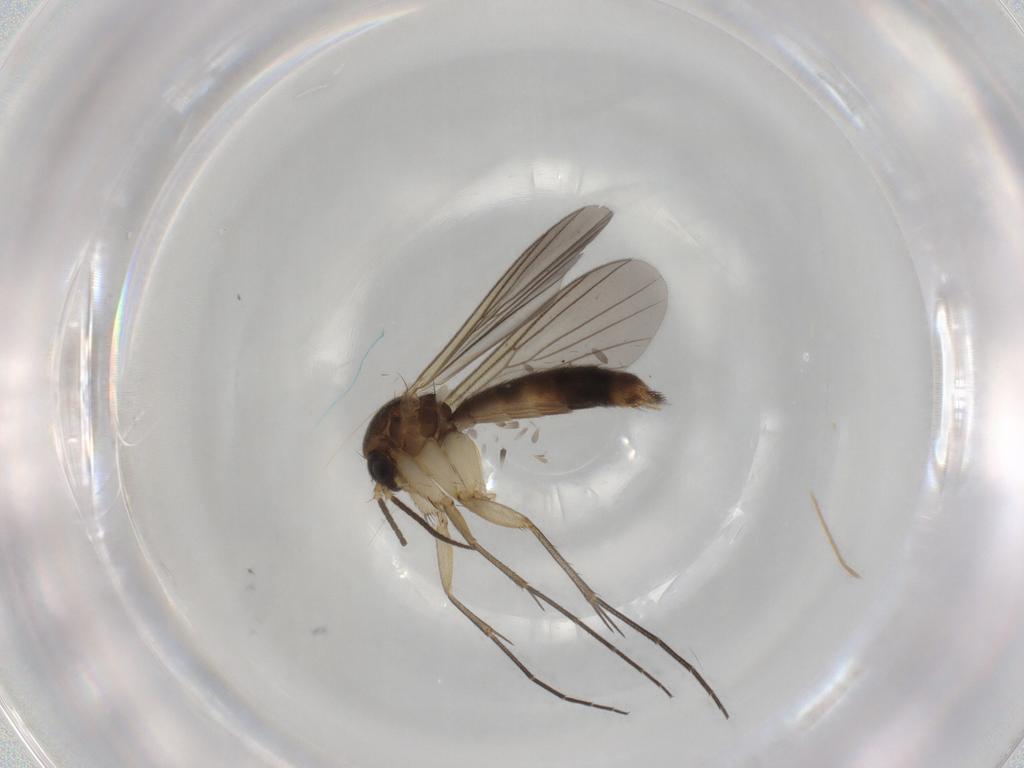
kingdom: Animalia
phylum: Arthropoda
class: Insecta
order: Diptera
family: Mycetophilidae
